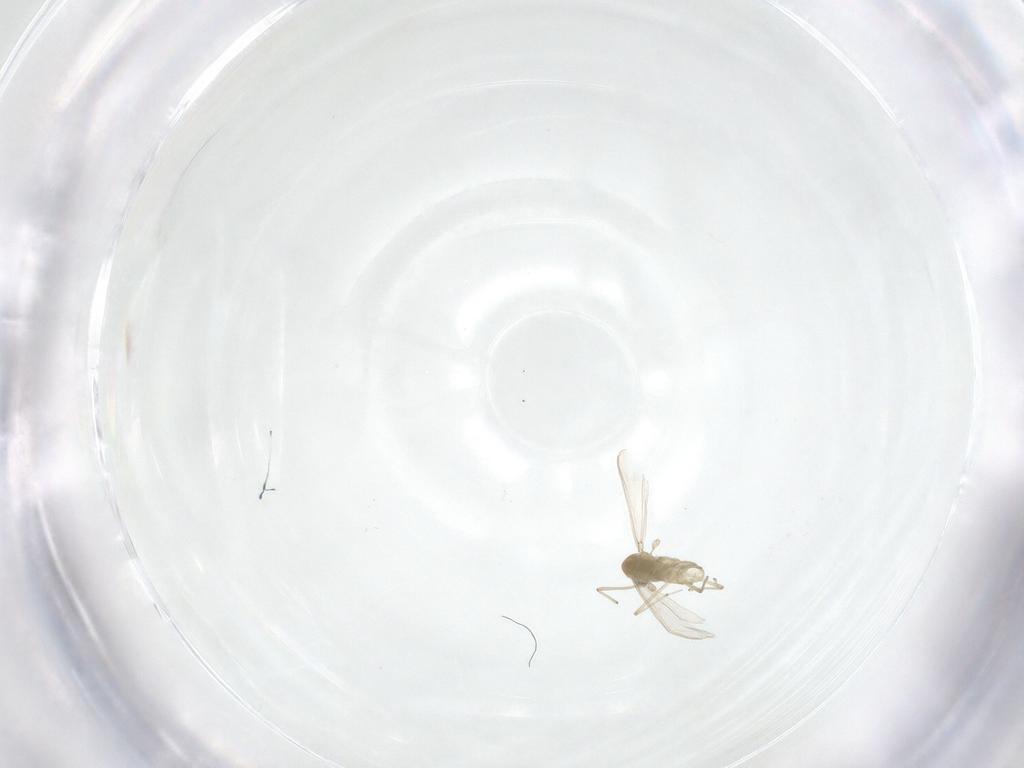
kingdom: Animalia
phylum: Arthropoda
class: Insecta
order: Diptera
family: Chironomidae
